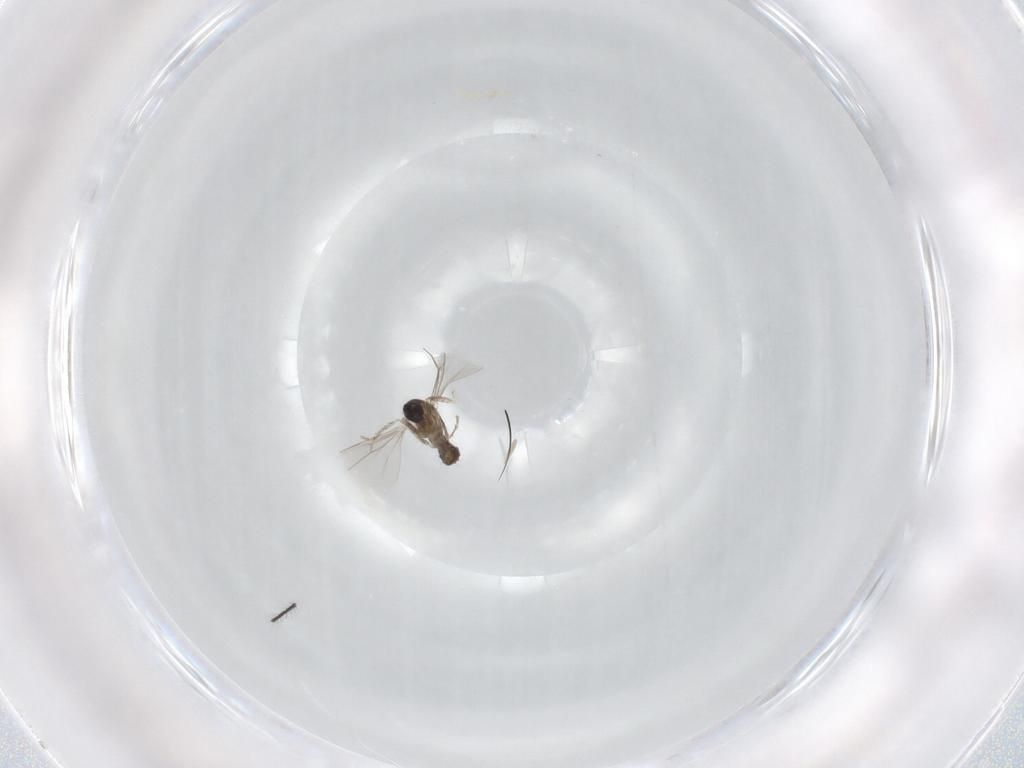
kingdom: Animalia
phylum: Arthropoda
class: Insecta
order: Diptera
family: Cecidomyiidae
